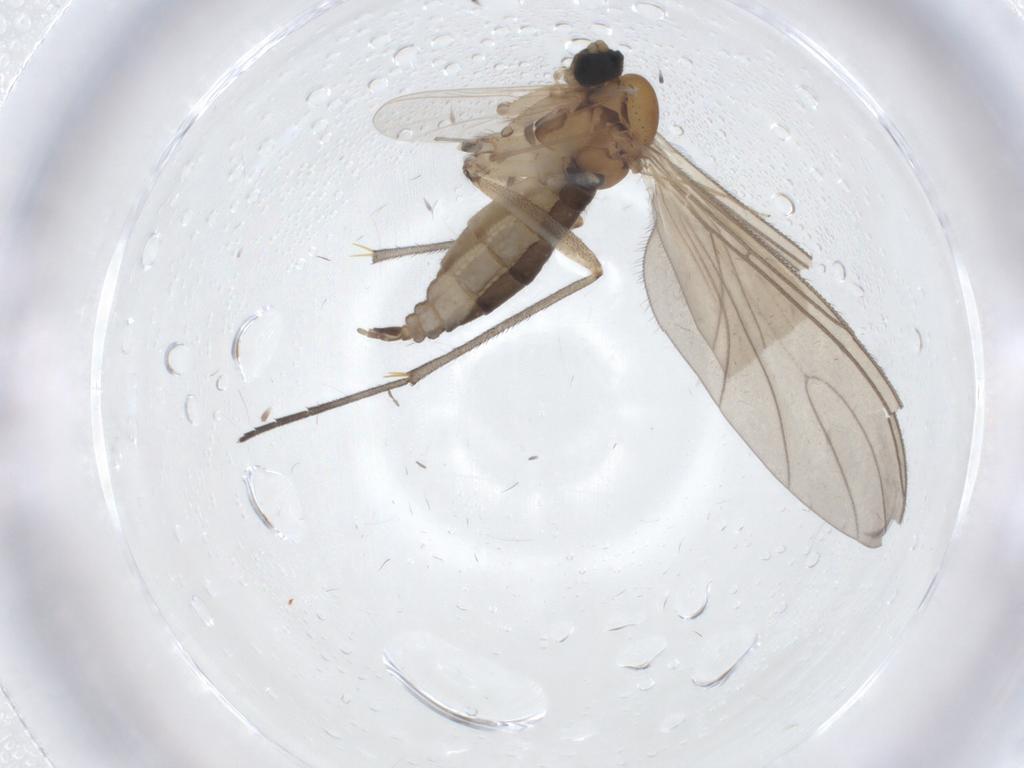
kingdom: Animalia
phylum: Arthropoda
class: Insecta
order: Diptera
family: Sciaridae
